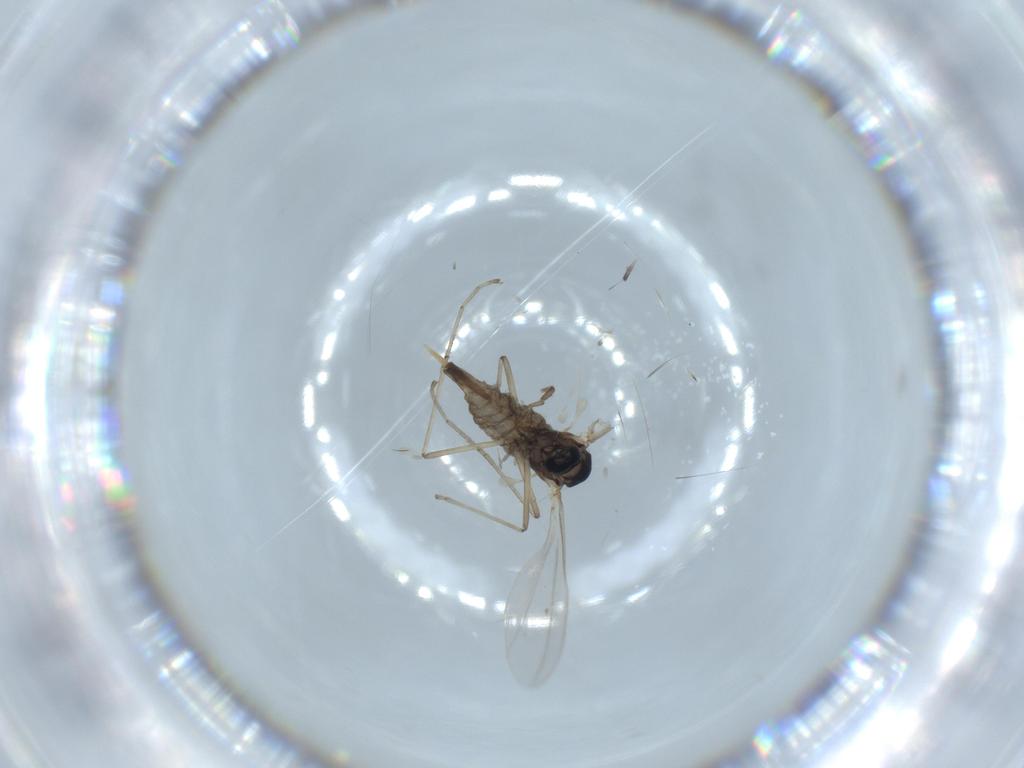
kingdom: Animalia
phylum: Arthropoda
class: Insecta
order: Diptera
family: Cecidomyiidae
